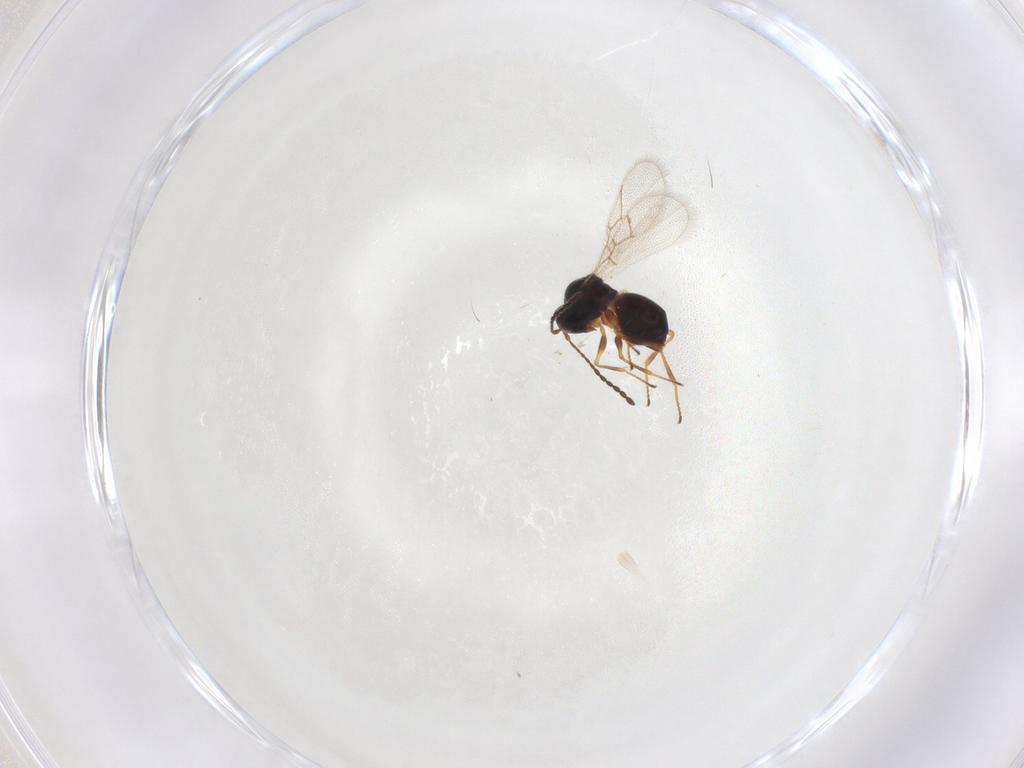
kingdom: Animalia
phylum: Arthropoda
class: Insecta
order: Hymenoptera
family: Figitidae
